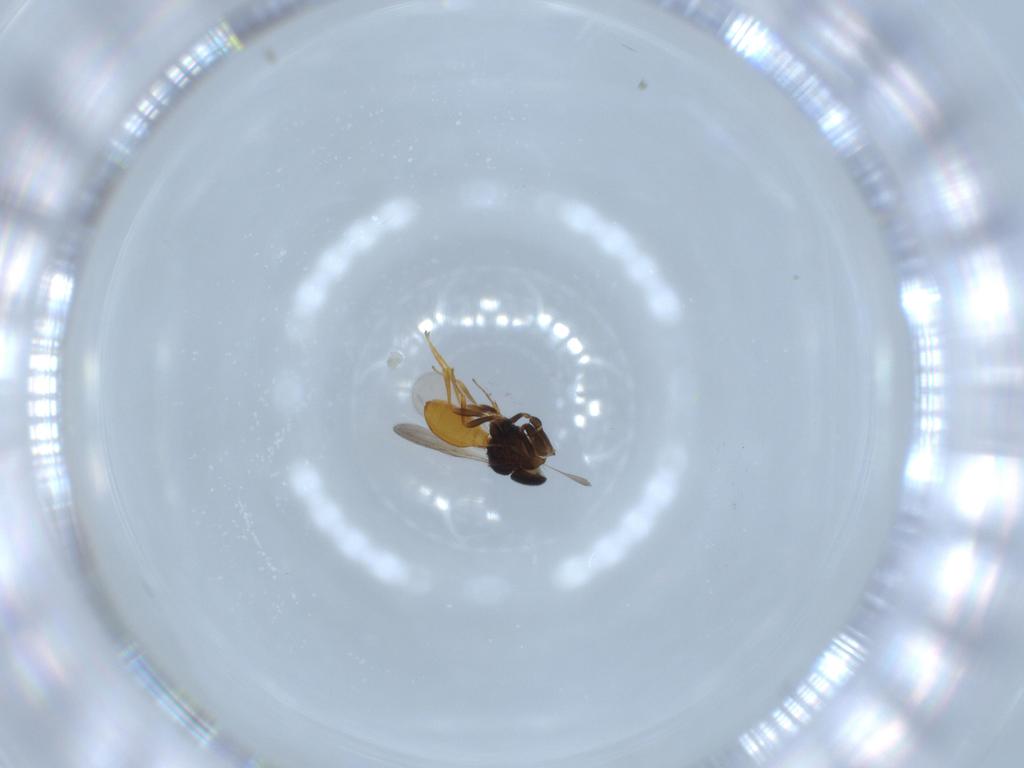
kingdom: Animalia
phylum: Arthropoda
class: Insecta
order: Hymenoptera
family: Scelionidae
